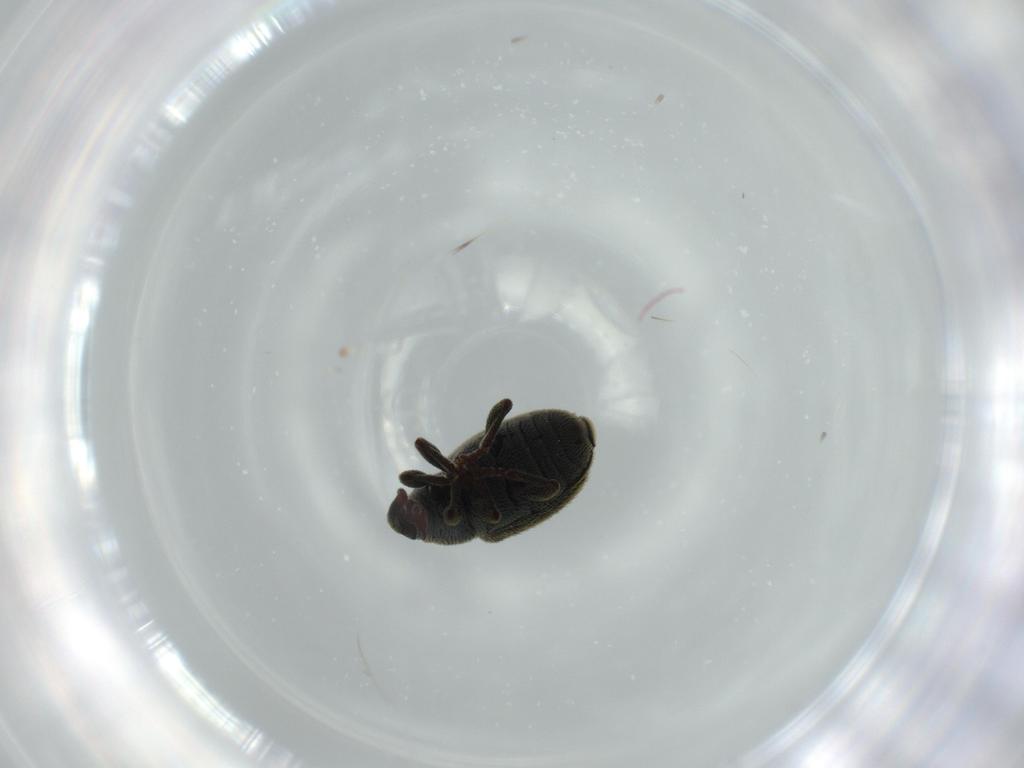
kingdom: Animalia
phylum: Arthropoda
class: Insecta
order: Coleoptera
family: Curculionidae
